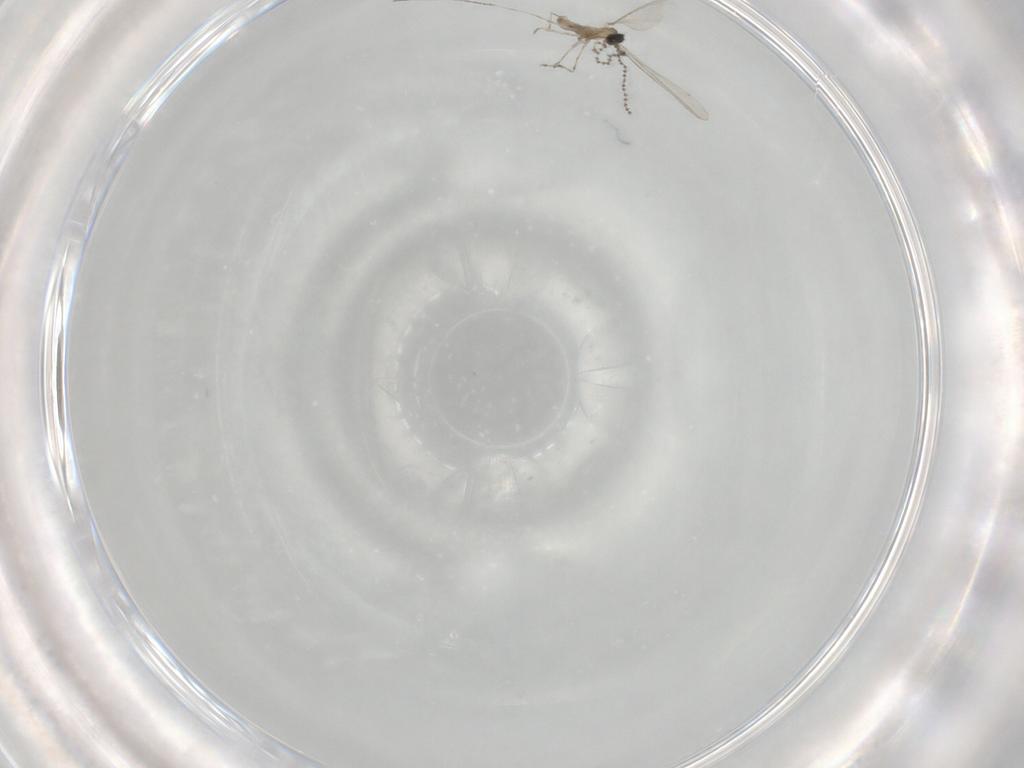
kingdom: Animalia
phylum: Arthropoda
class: Insecta
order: Diptera
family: Cecidomyiidae
